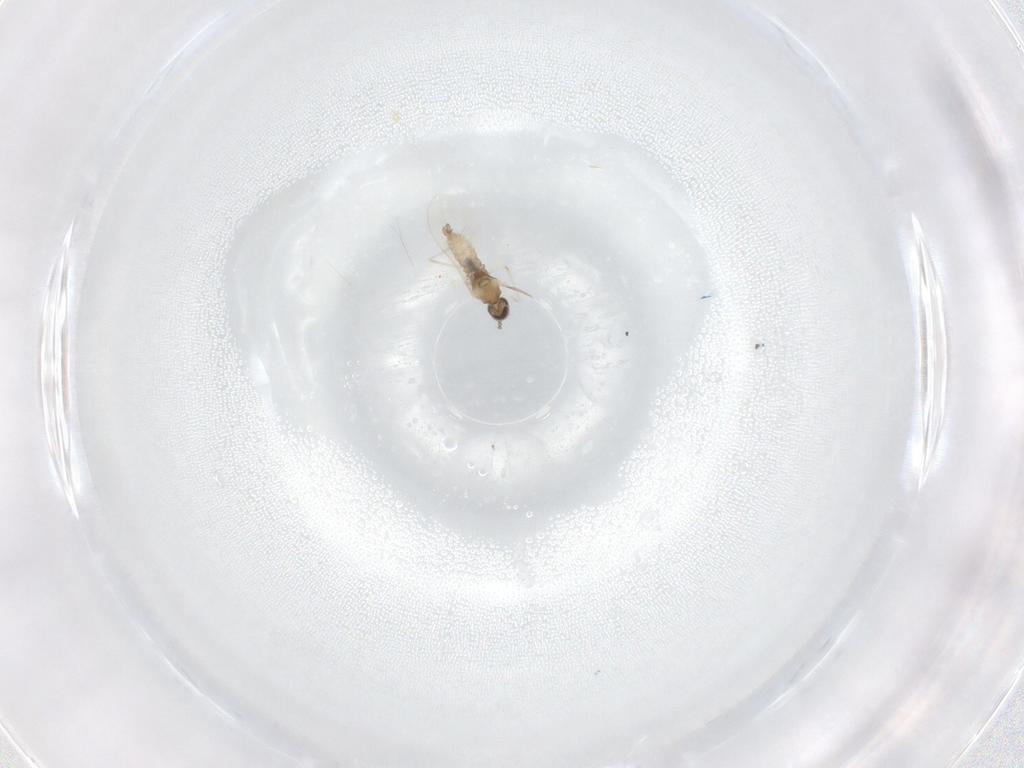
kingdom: Animalia
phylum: Arthropoda
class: Insecta
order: Diptera
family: Cecidomyiidae
